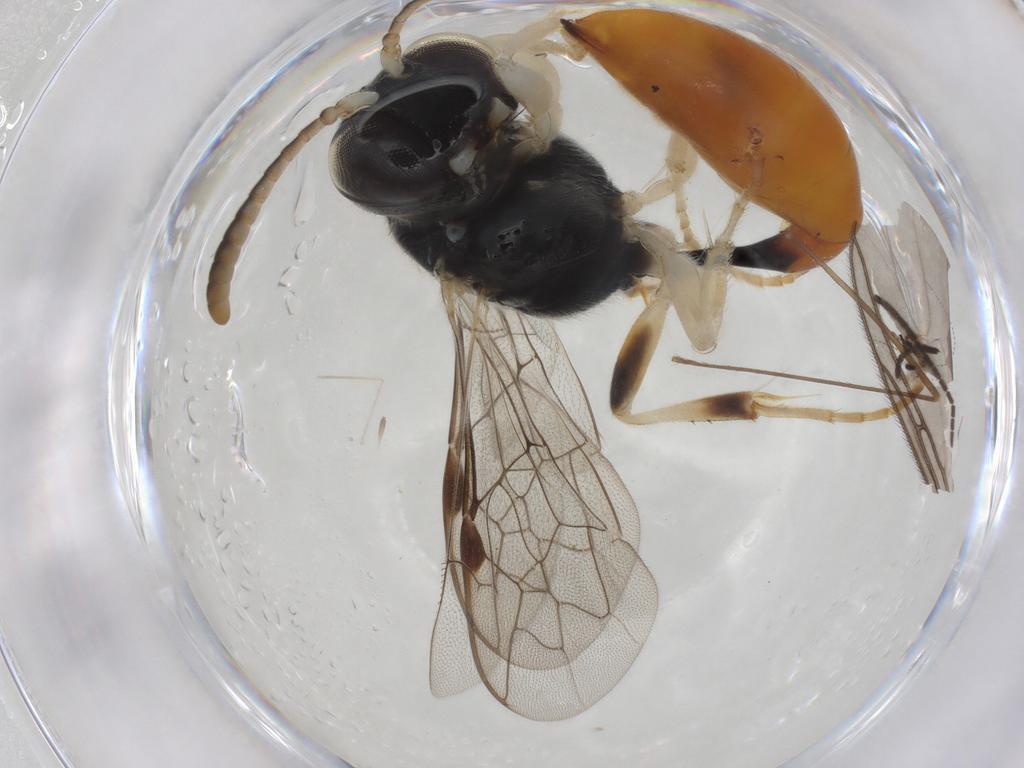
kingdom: Animalia
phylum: Arthropoda
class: Insecta
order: Hymenoptera
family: Crabronidae
